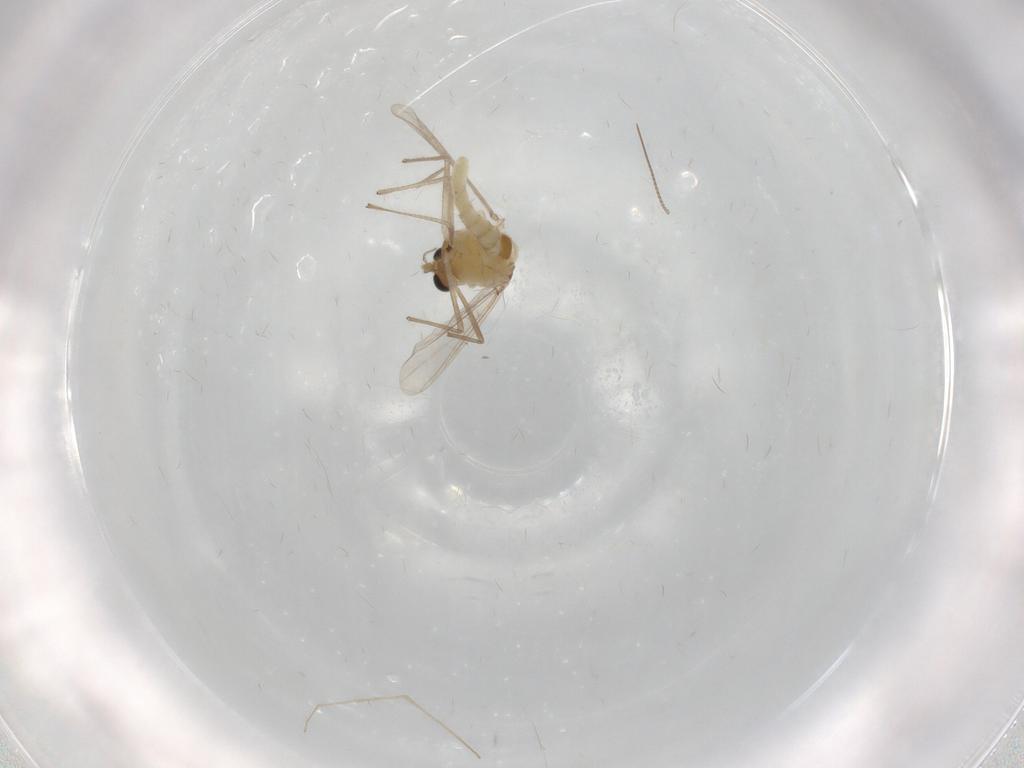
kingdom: Animalia
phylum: Arthropoda
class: Insecta
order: Diptera
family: Chironomidae
